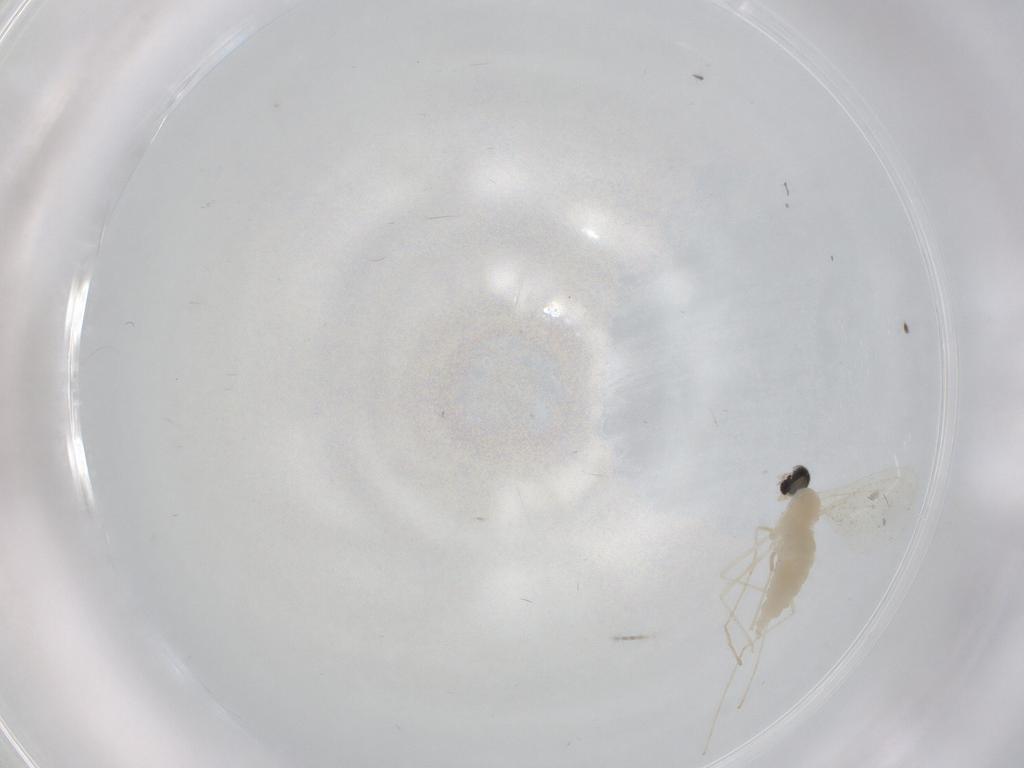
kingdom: Animalia
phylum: Arthropoda
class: Insecta
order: Diptera
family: Cecidomyiidae
